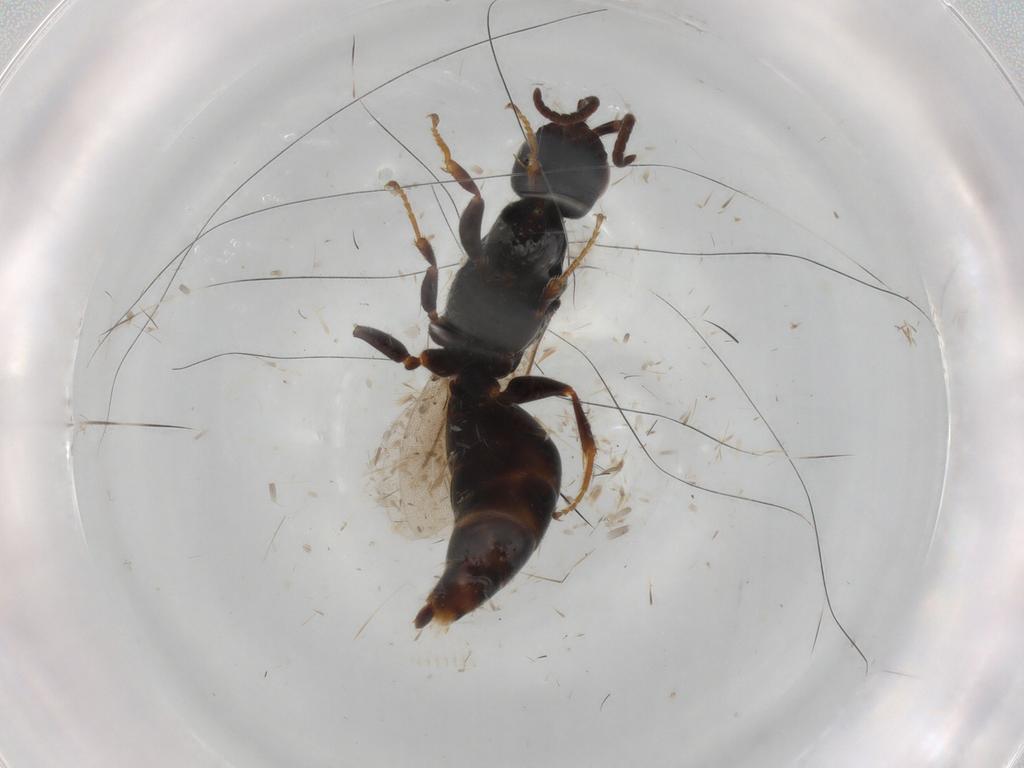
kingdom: Animalia
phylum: Arthropoda
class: Insecta
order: Hymenoptera
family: Bethylidae
